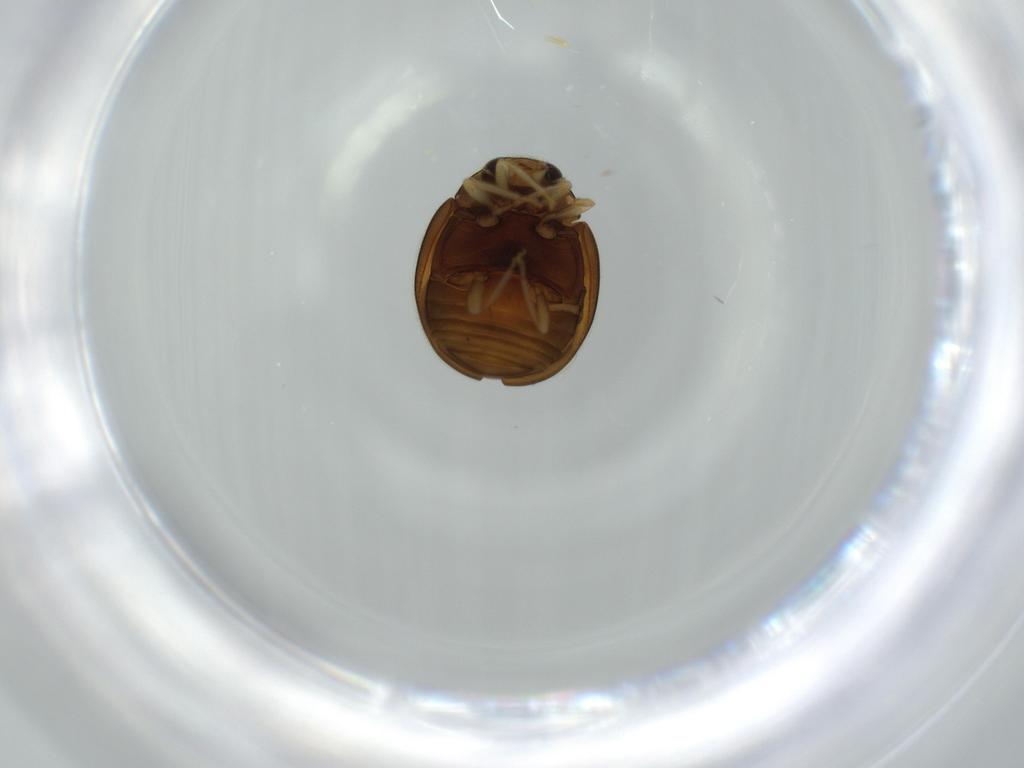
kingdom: Animalia
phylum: Arthropoda
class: Insecta
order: Coleoptera
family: Coccinellidae
